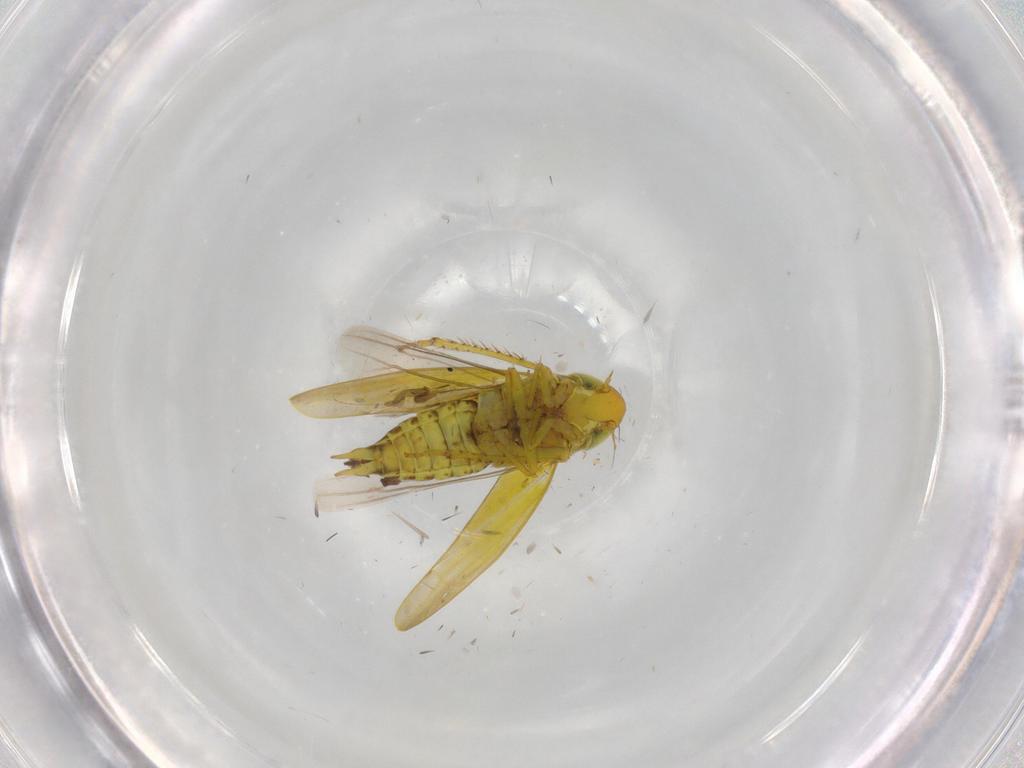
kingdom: Animalia
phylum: Arthropoda
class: Insecta
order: Hemiptera
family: Cicadellidae
